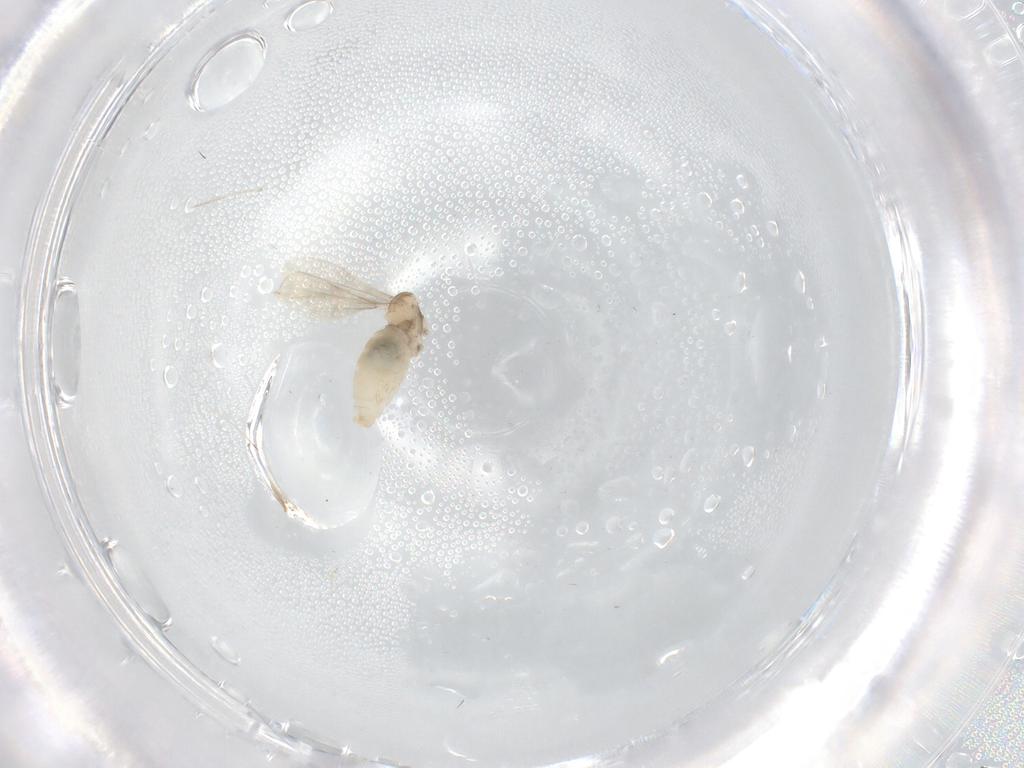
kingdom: Animalia
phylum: Arthropoda
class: Insecta
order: Diptera
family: Cecidomyiidae
